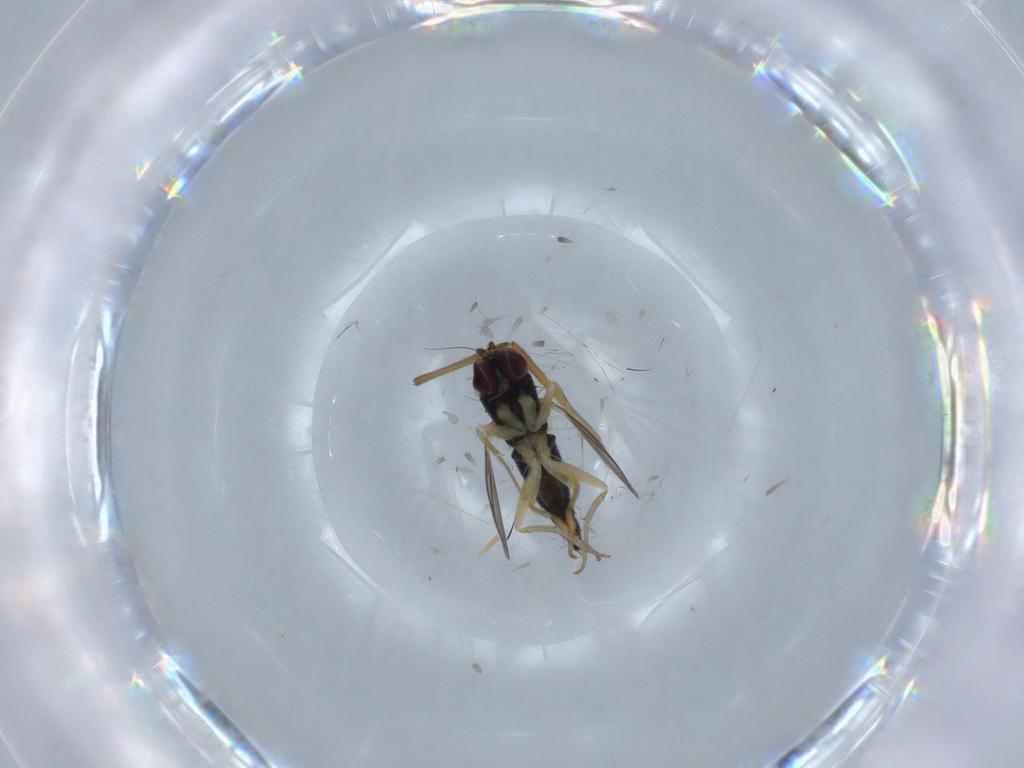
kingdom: Animalia
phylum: Arthropoda
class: Insecta
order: Diptera
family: Dolichopodidae
